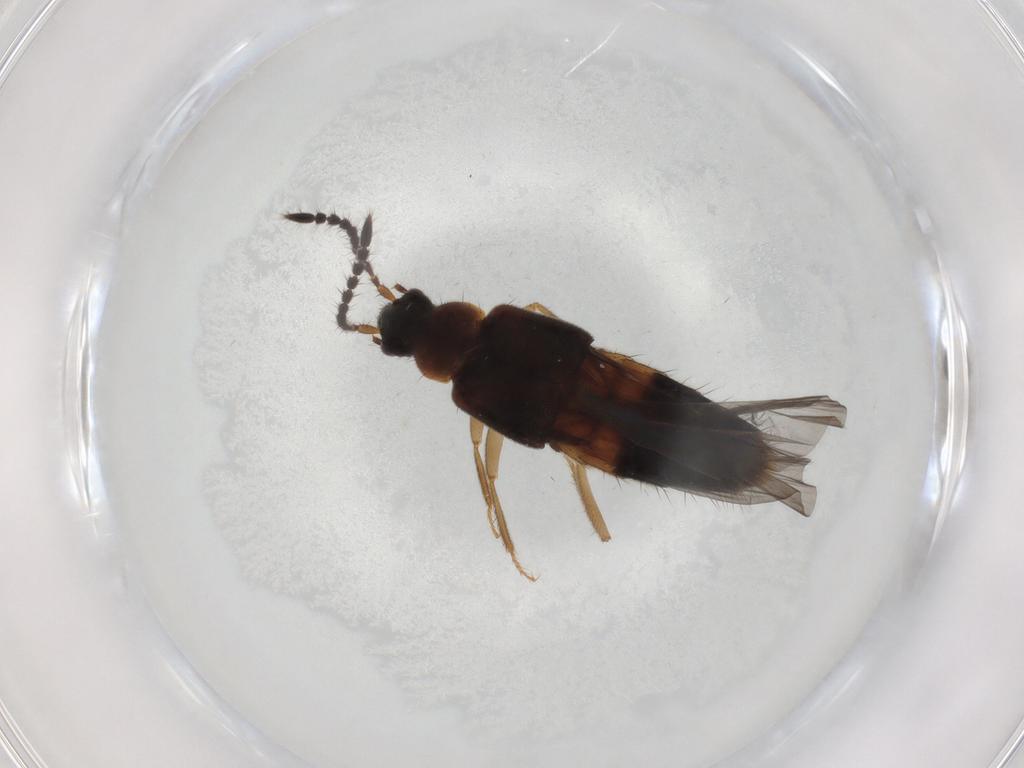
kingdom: Animalia
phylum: Arthropoda
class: Insecta
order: Coleoptera
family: Staphylinidae
